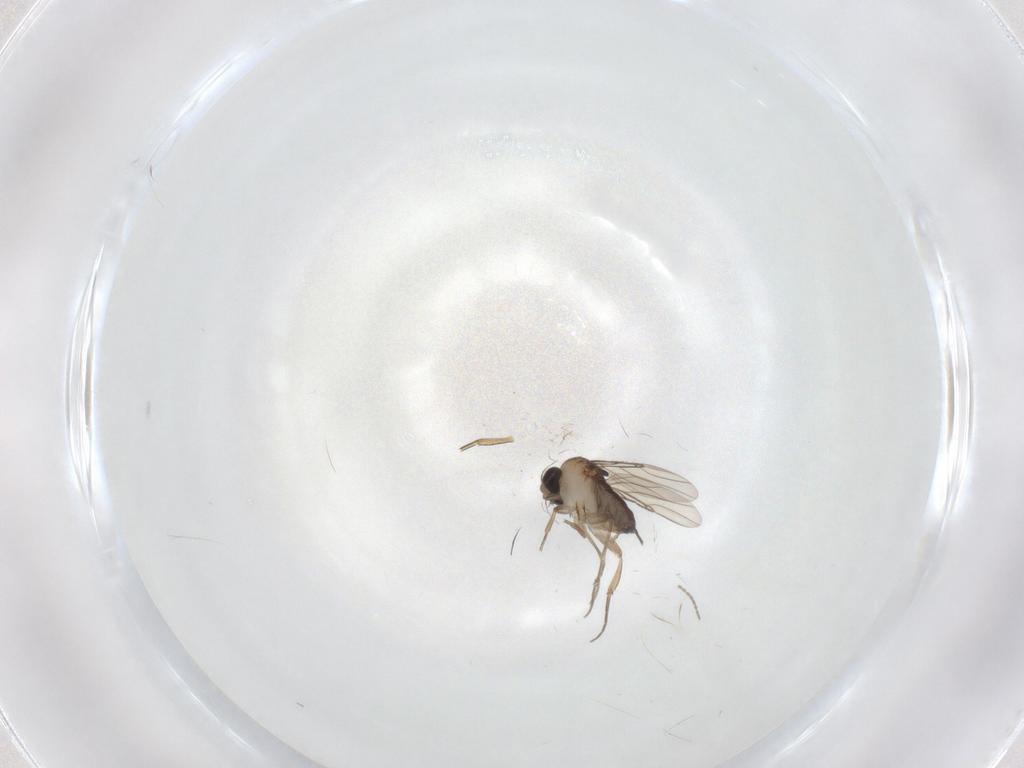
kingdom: Animalia
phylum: Arthropoda
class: Insecta
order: Diptera
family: Phoridae
